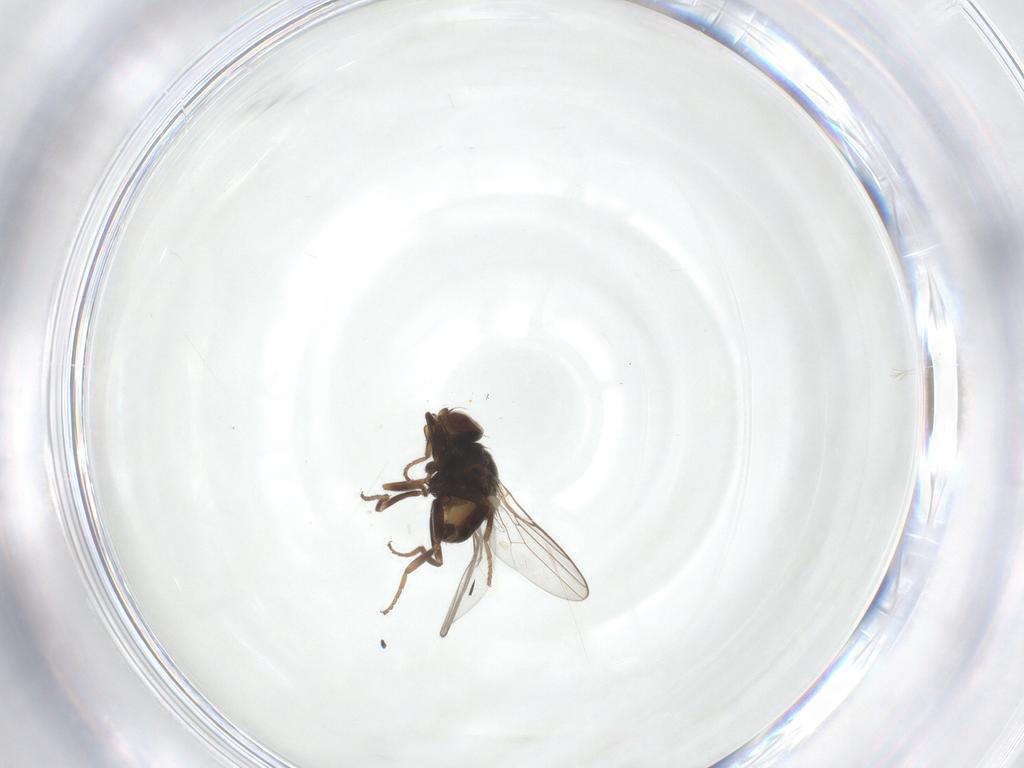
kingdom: Animalia
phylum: Arthropoda
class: Insecta
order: Diptera
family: Chloropidae
